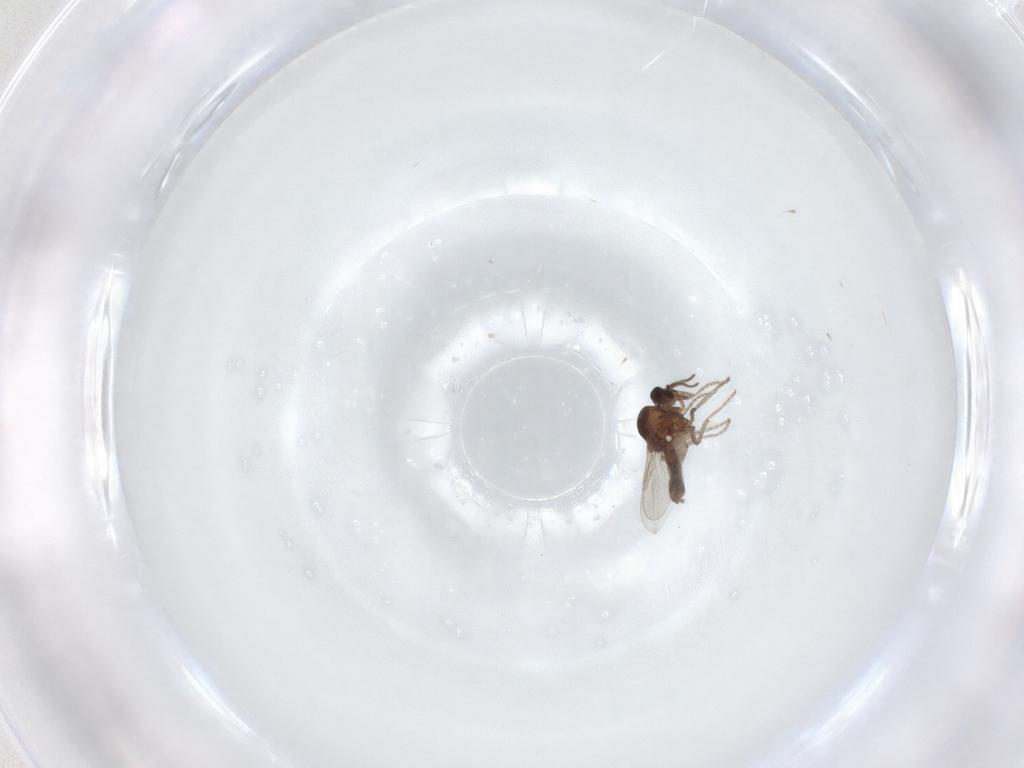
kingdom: Animalia
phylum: Arthropoda
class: Insecta
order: Diptera
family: Ceratopogonidae
